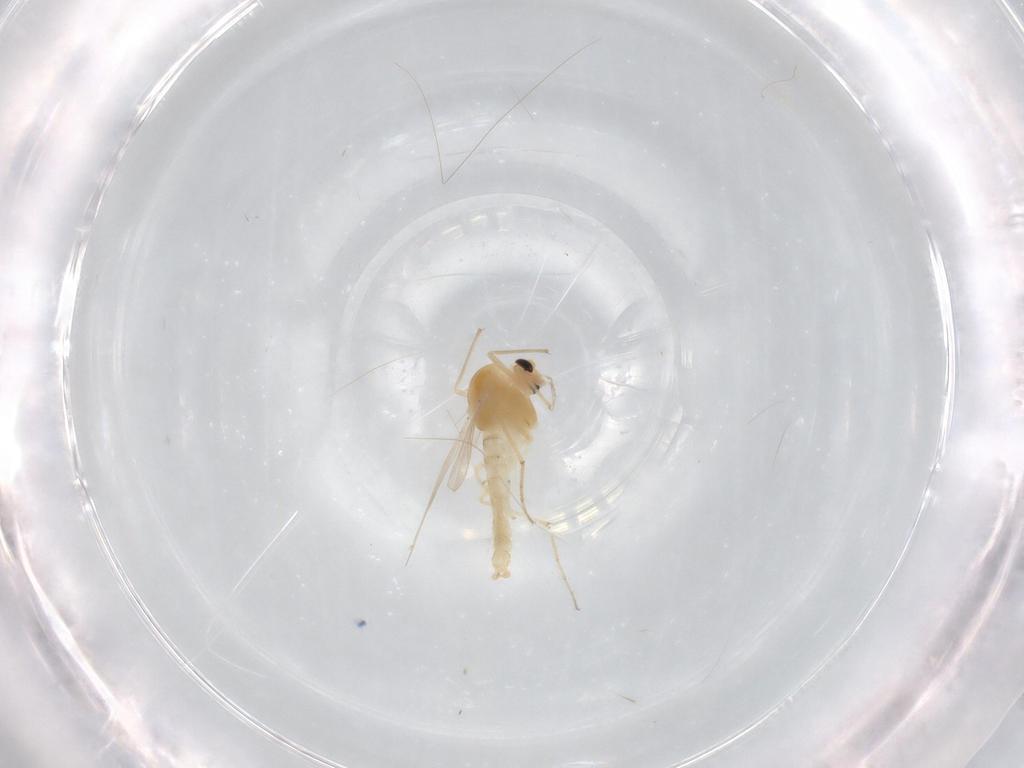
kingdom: Animalia
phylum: Arthropoda
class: Insecta
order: Diptera
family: Chironomidae
